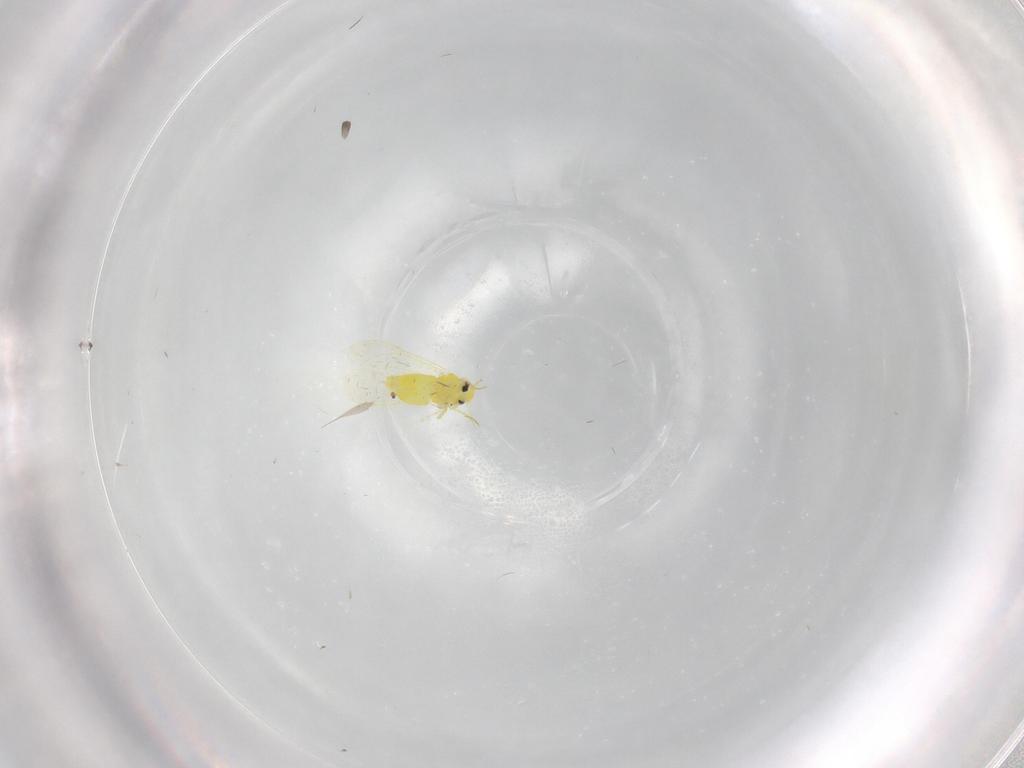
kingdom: Animalia
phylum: Arthropoda
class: Insecta
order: Hemiptera
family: Aleyrodidae
